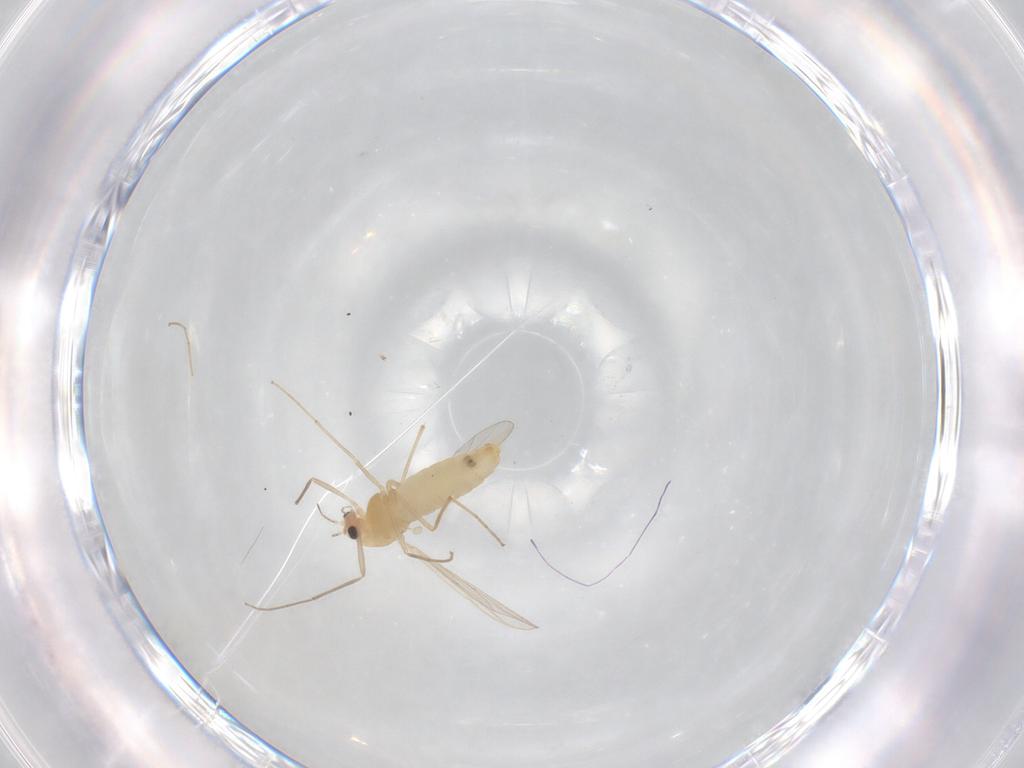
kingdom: Animalia
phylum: Arthropoda
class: Insecta
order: Diptera
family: Chironomidae
